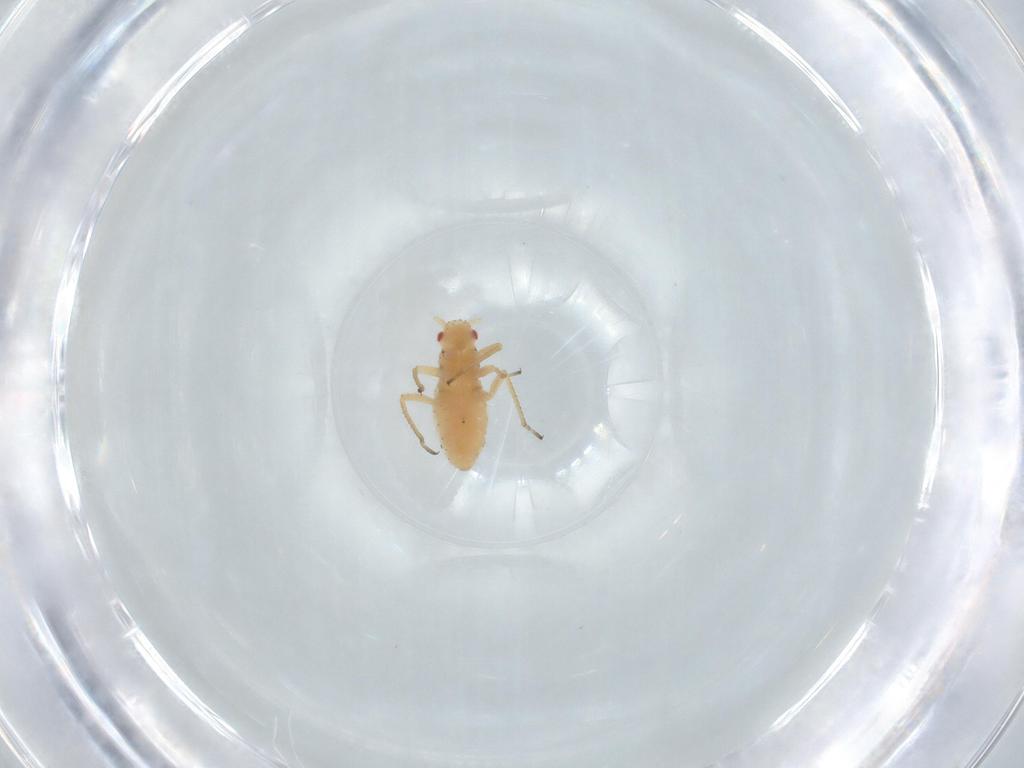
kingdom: Animalia
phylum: Arthropoda
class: Insecta
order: Hemiptera
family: Aphididae
